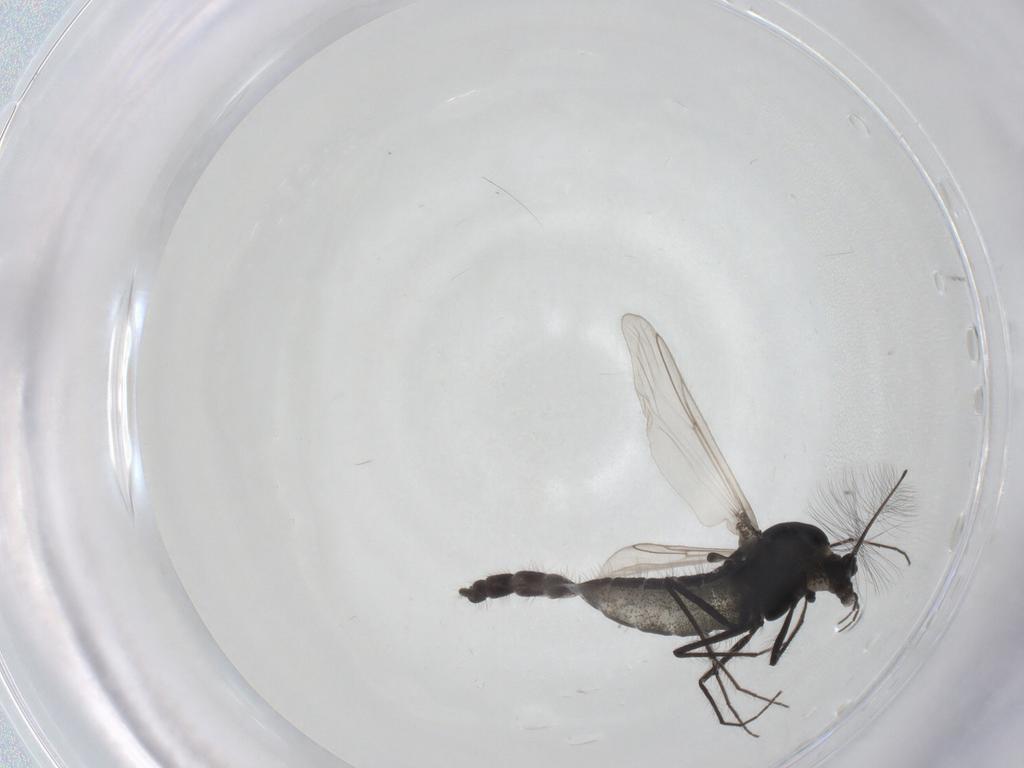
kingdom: Animalia
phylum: Arthropoda
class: Insecta
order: Diptera
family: Chironomidae
